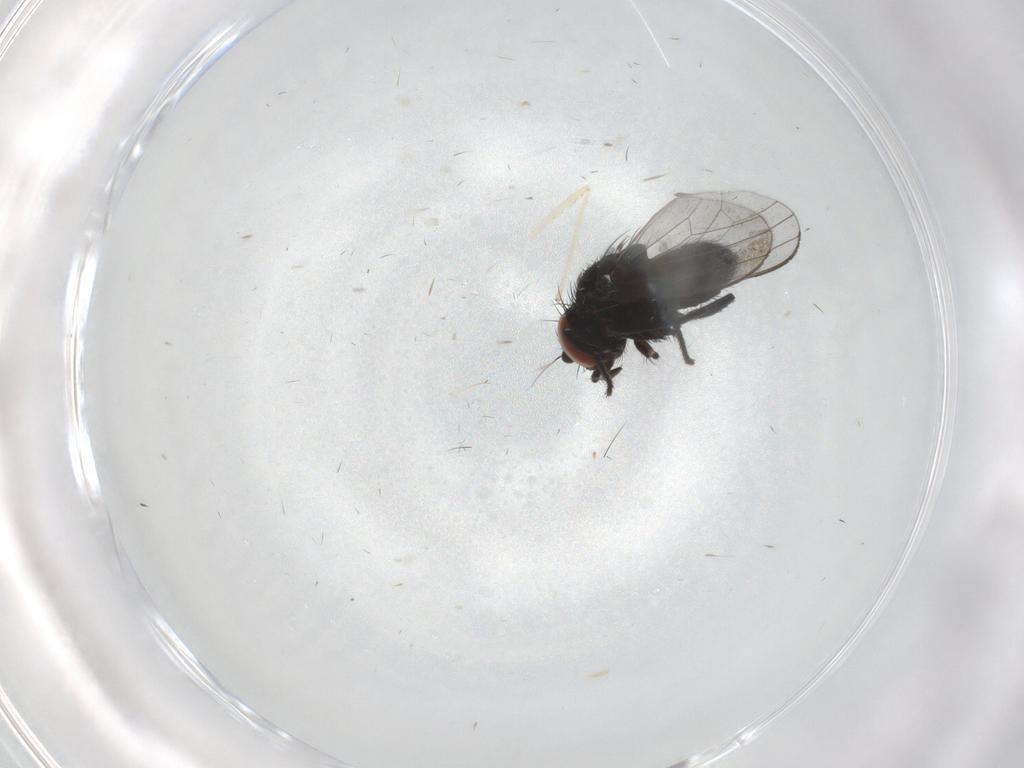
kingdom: Animalia
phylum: Arthropoda
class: Insecta
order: Diptera
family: Milichiidae
